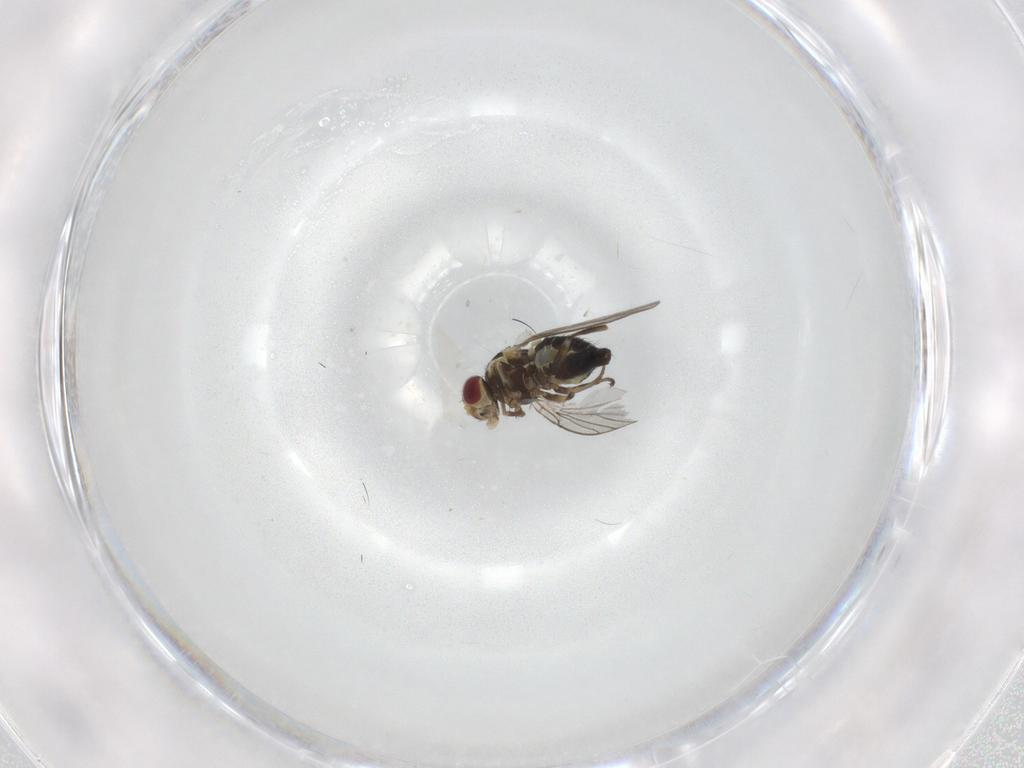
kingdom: Animalia
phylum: Arthropoda
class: Insecta
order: Diptera
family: Agromyzidae
